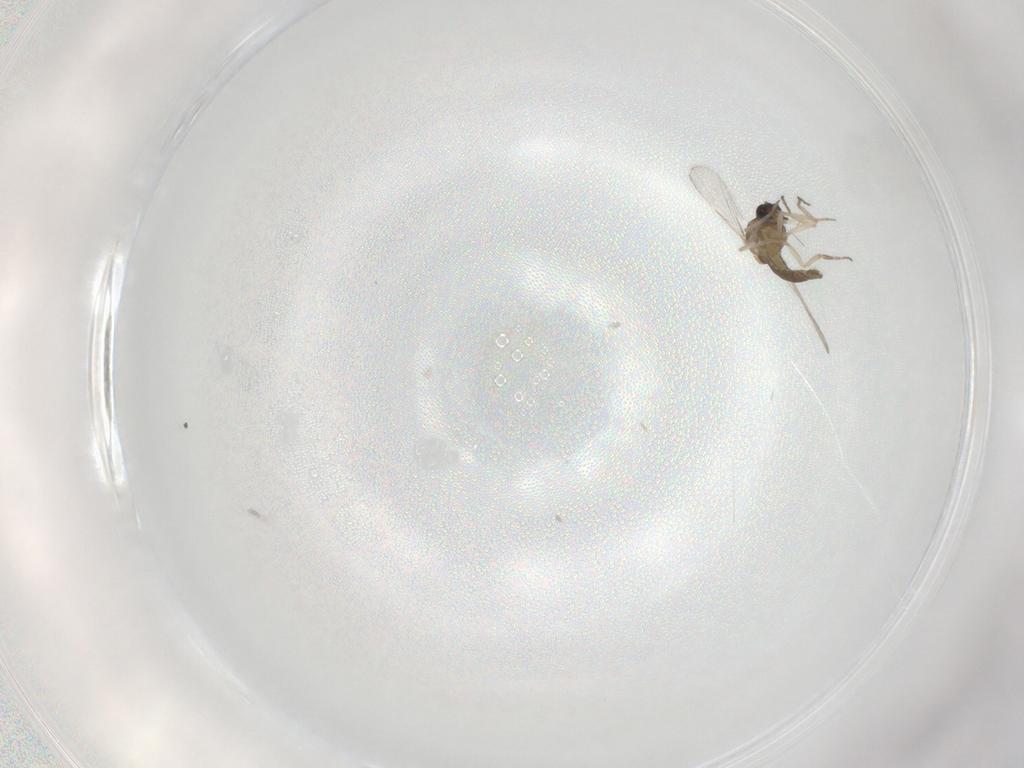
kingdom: Animalia
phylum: Arthropoda
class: Insecta
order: Diptera
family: Ceratopogonidae
